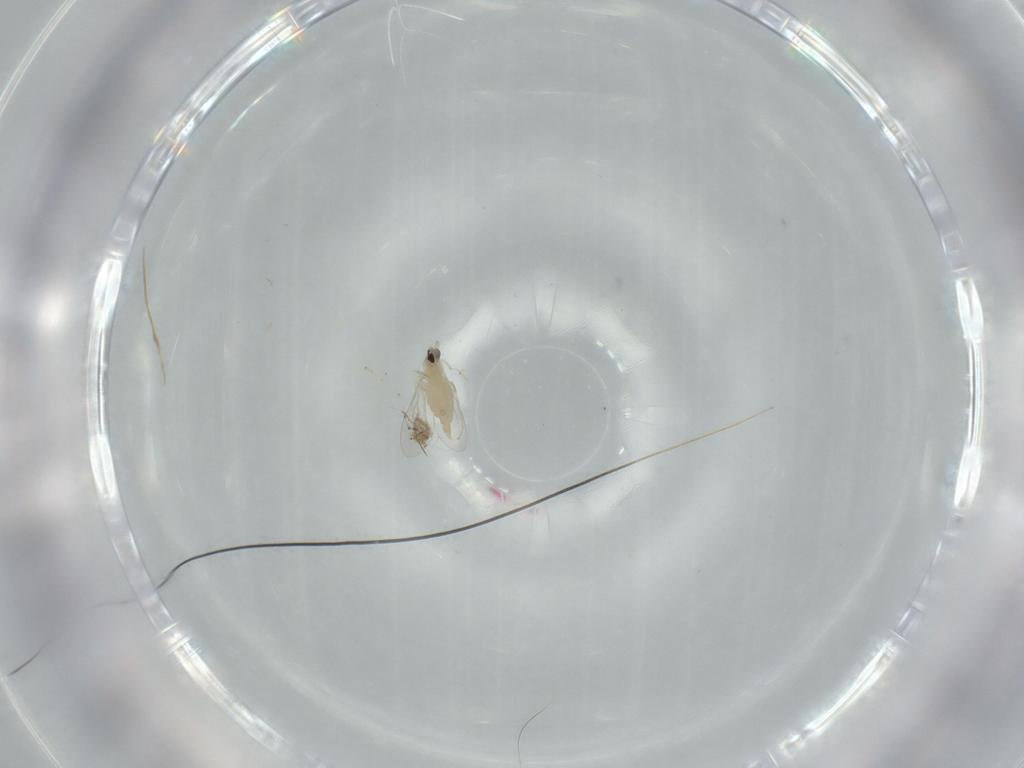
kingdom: Animalia
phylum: Arthropoda
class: Insecta
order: Diptera
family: Cecidomyiidae
